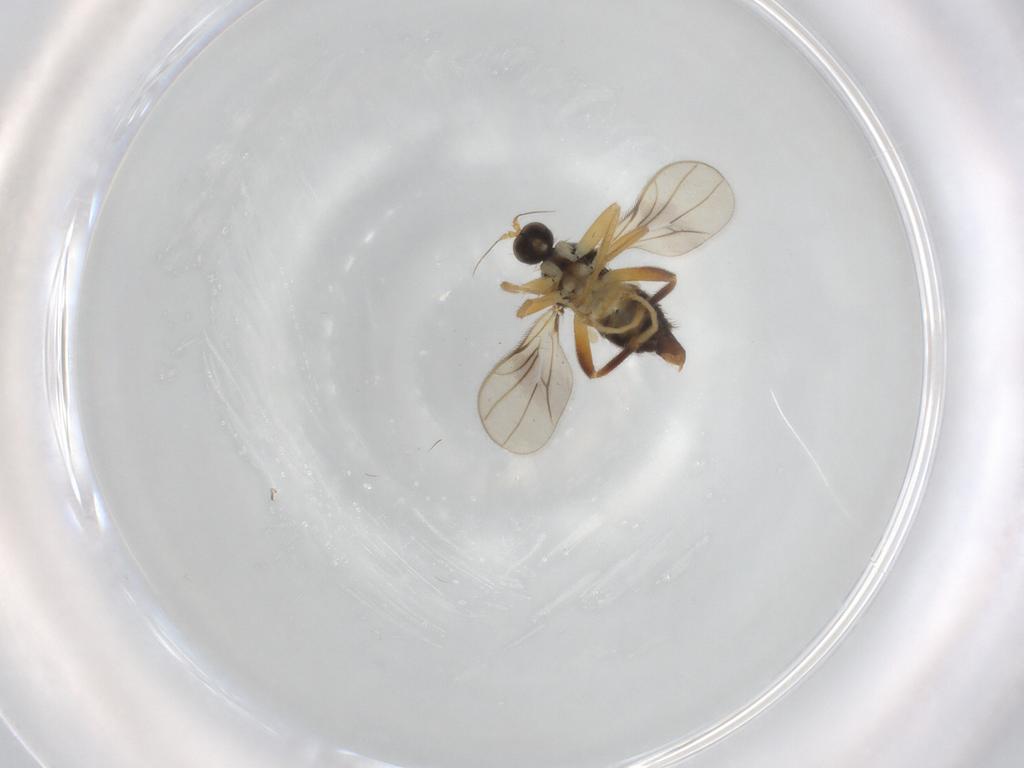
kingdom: Animalia
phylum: Arthropoda
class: Insecta
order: Diptera
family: Hybotidae
